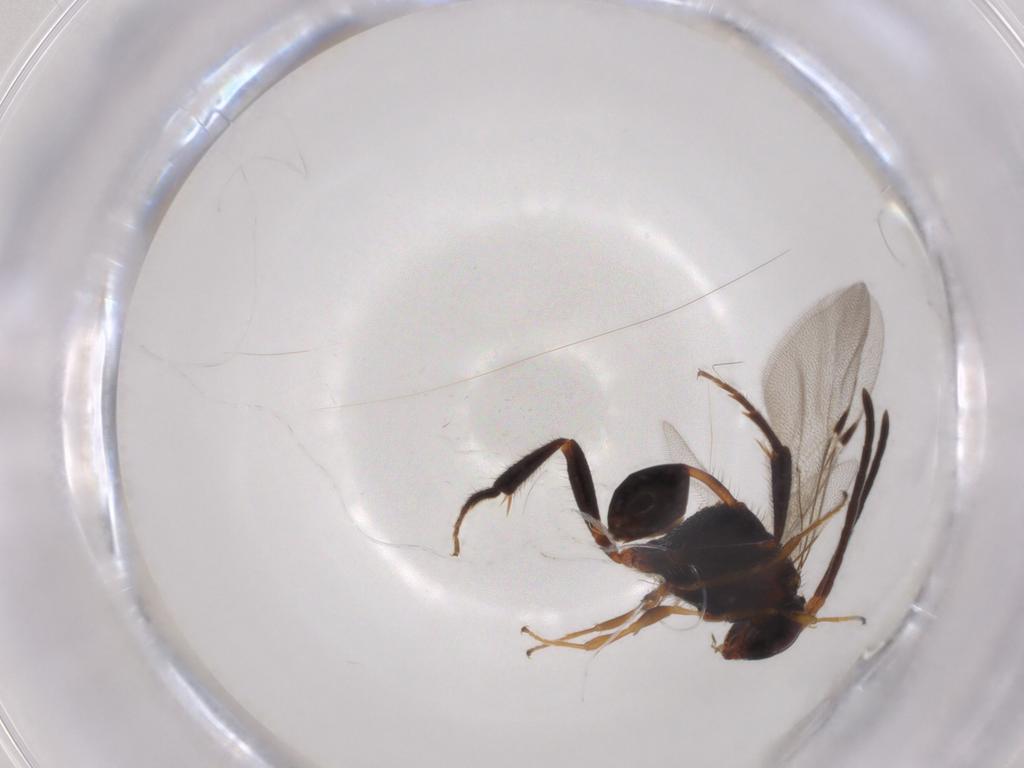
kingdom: Animalia
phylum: Arthropoda
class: Insecta
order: Hymenoptera
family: Evaniidae
